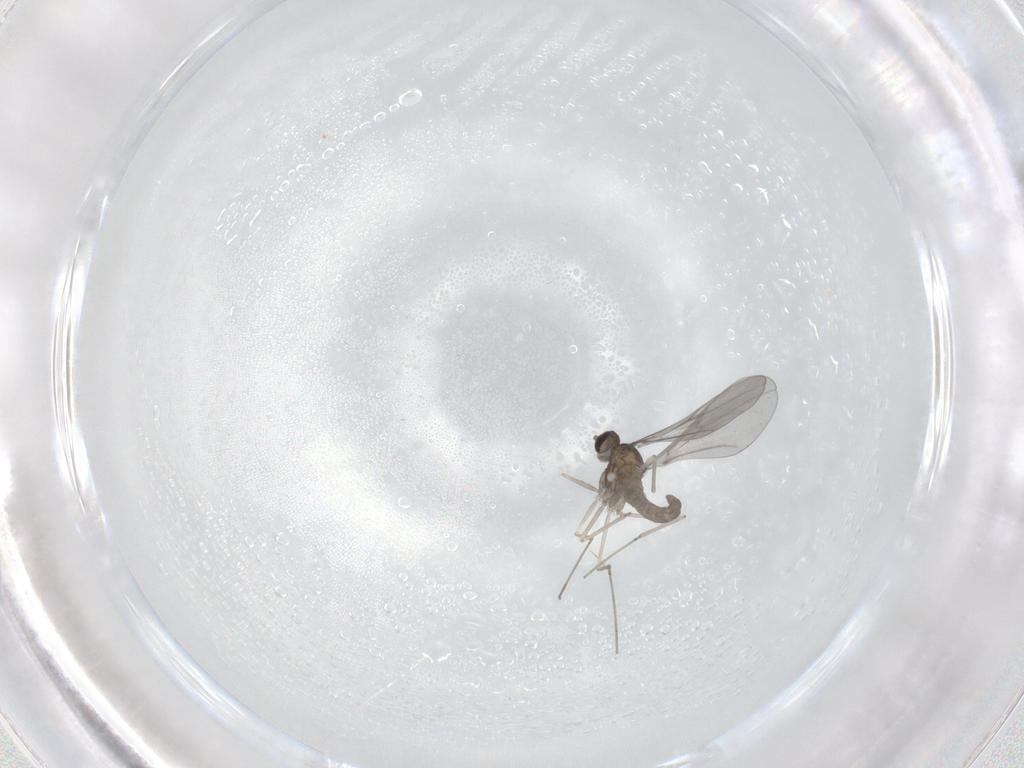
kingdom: Animalia
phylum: Arthropoda
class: Insecta
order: Diptera
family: Cecidomyiidae
